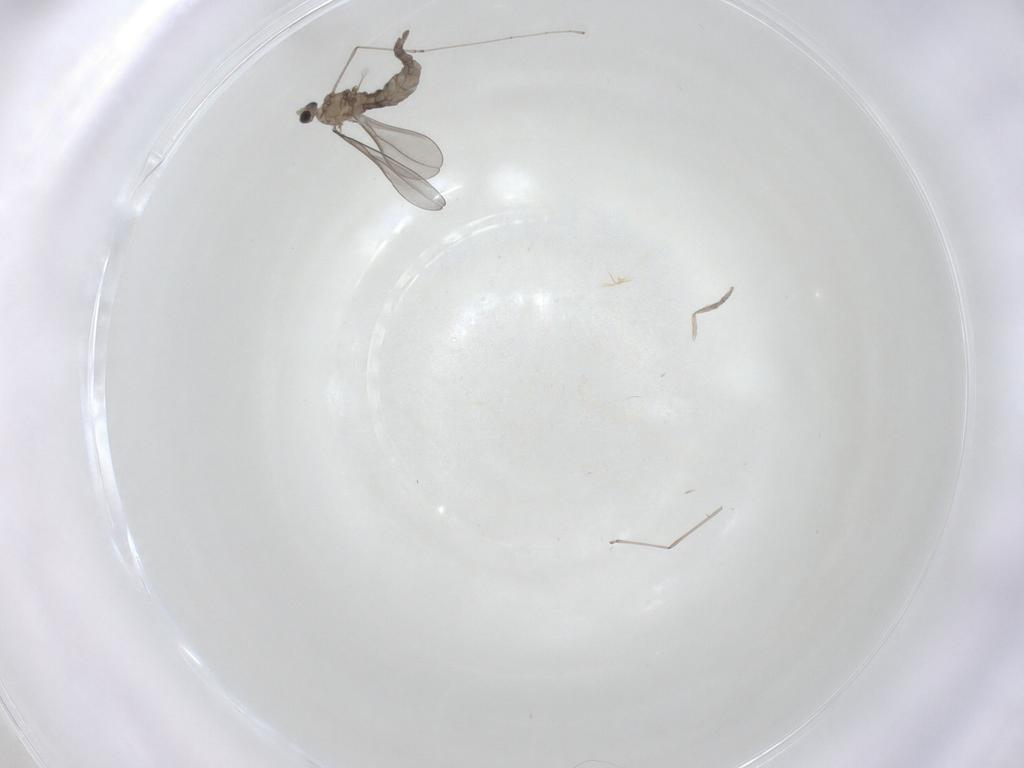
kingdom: Animalia
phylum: Arthropoda
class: Insecta
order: Diptera
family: Cecidomyiidae
